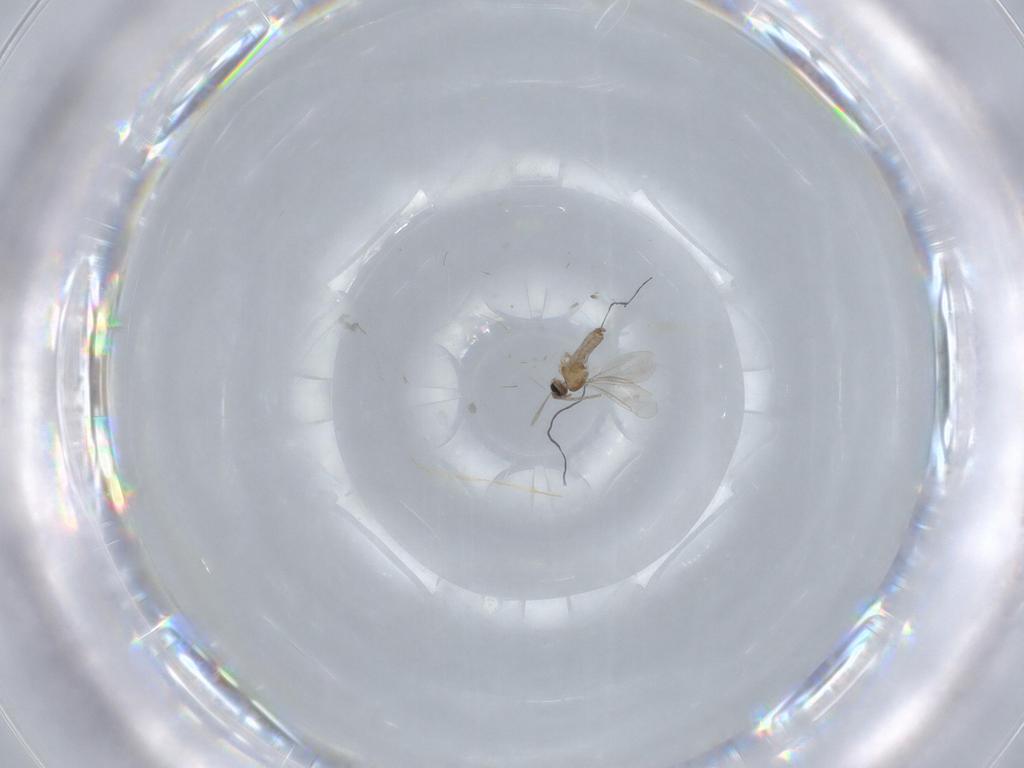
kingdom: Animalia
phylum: Arthropoda
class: Insecta
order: Diptera
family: Cecidomyiidae
